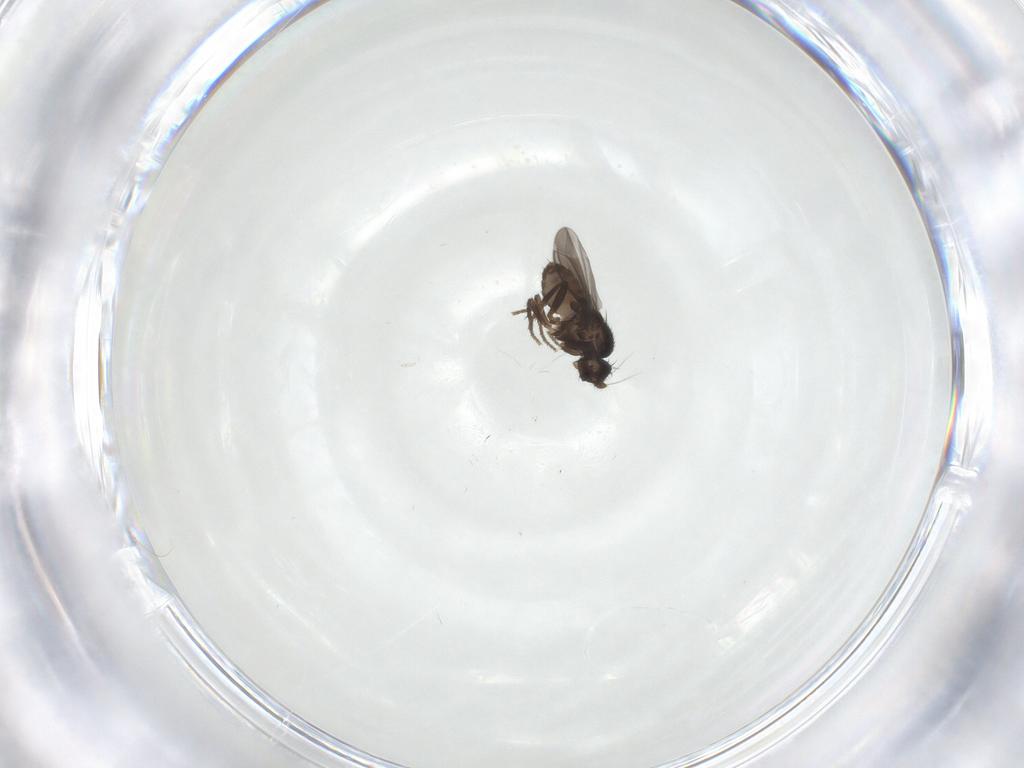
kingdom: Animalia
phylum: Arthropoda
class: Insecta
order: Diptera
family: Sphaeroceridae
